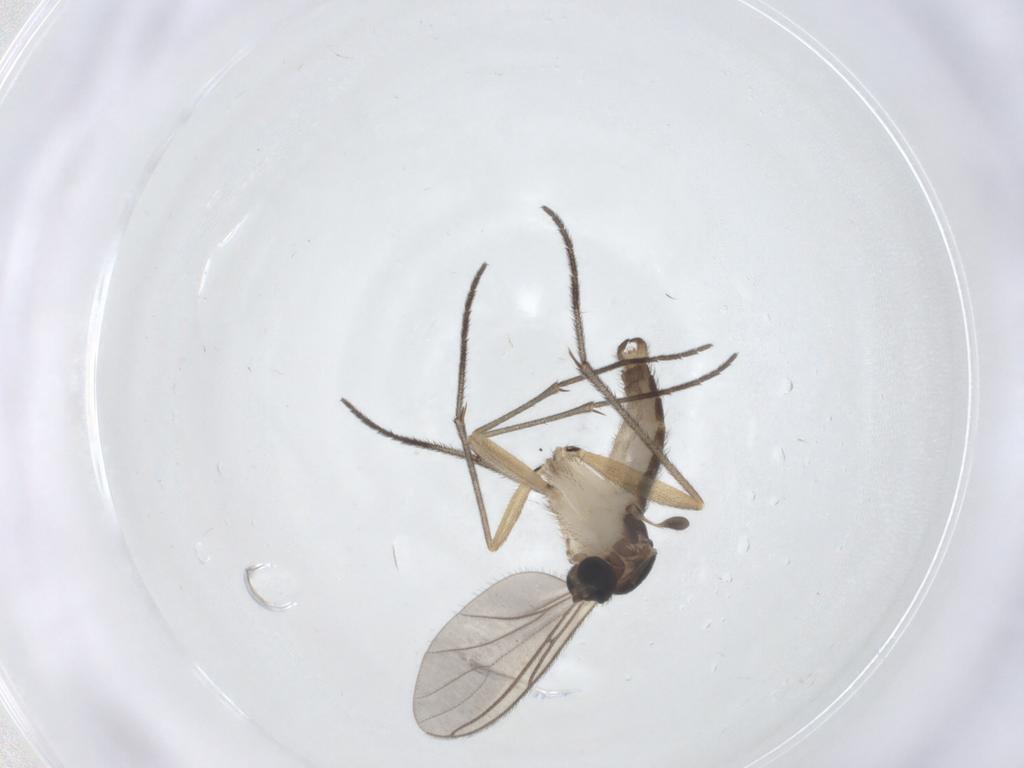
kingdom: Animalia
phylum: Arthropoda
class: Insecta
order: Diptera
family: Sciaridae
